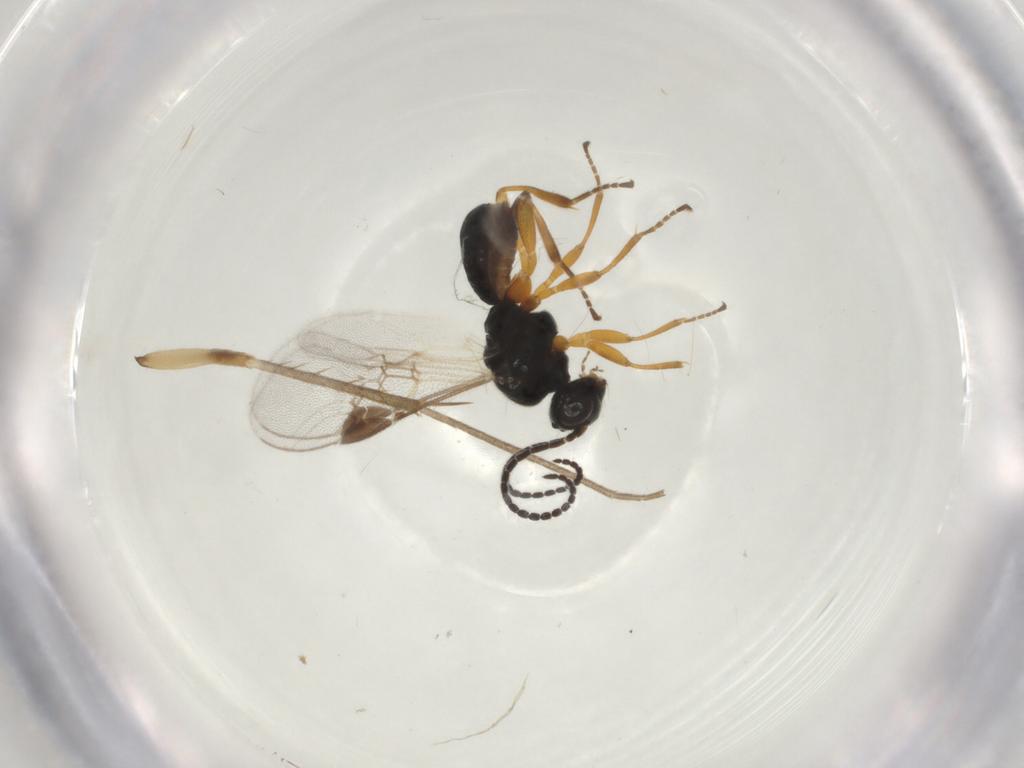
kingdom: Animalia
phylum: Arthropoda
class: Insecta
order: Hymenoptera
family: Braconidae
